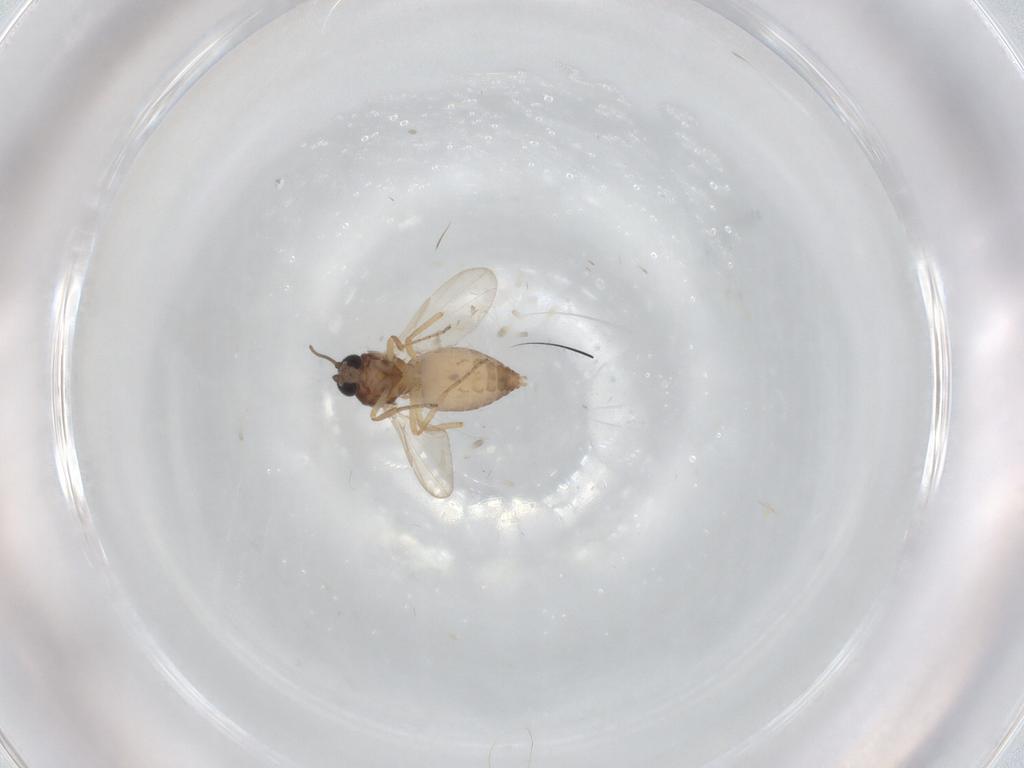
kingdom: Animalia
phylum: Arthropoda
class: Insecta
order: Diptera
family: Ceratopogonidae
